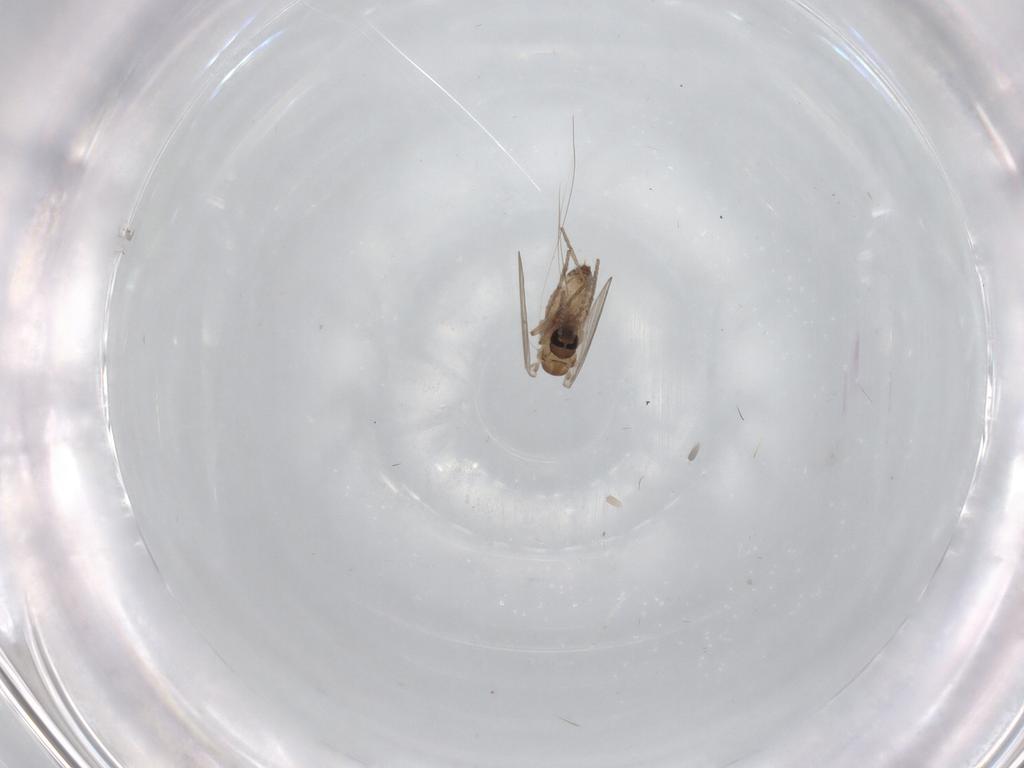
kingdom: Animalia
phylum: Arthropoda
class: Insecta
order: Diptera
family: Psychodidae
